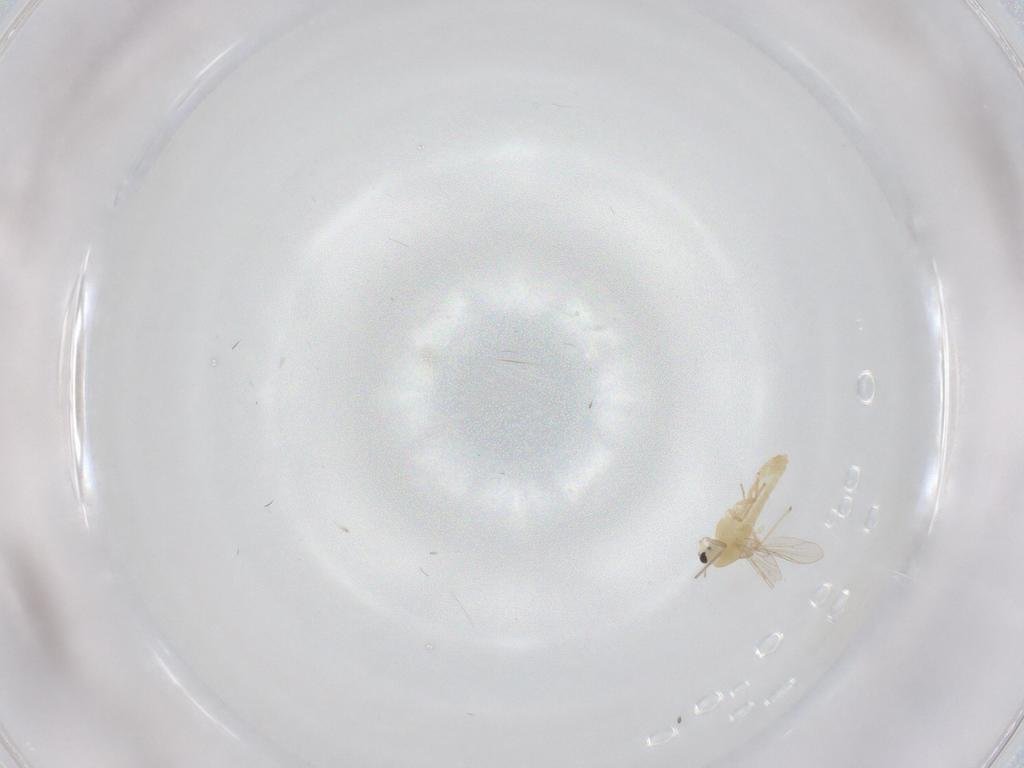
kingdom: Animalia
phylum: Arthropoda
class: Insecta
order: Diptera
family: Chironomidae
